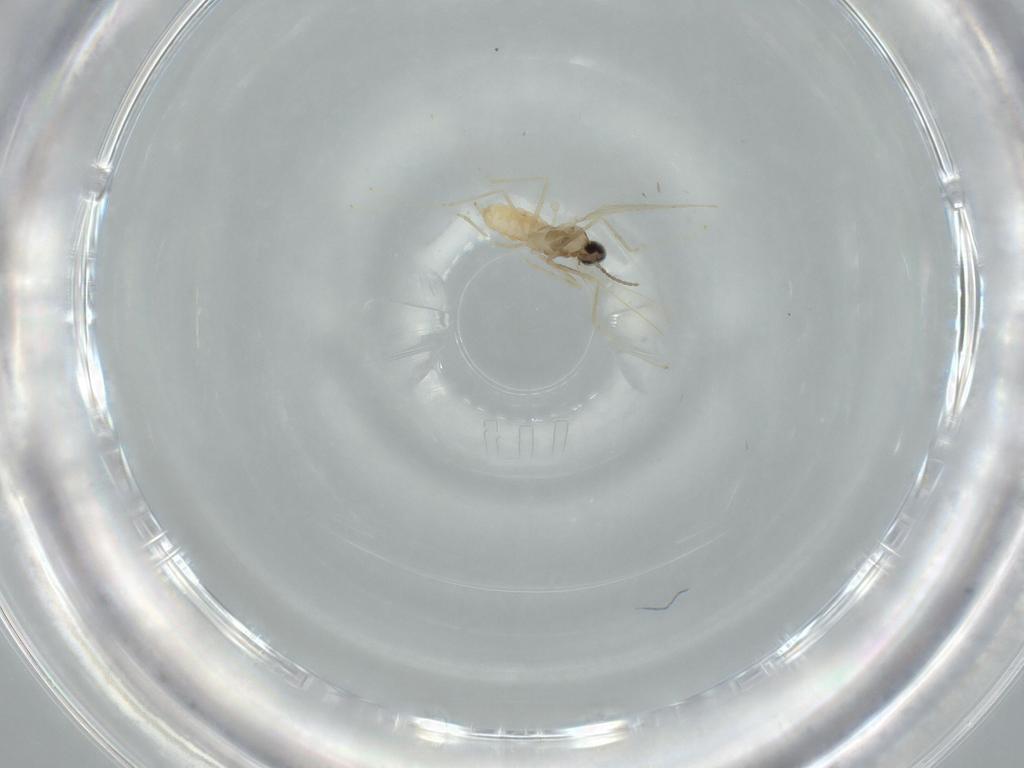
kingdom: Animalia
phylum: Arthropoda
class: Insecta
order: Diptera
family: Cecidomyiidae
